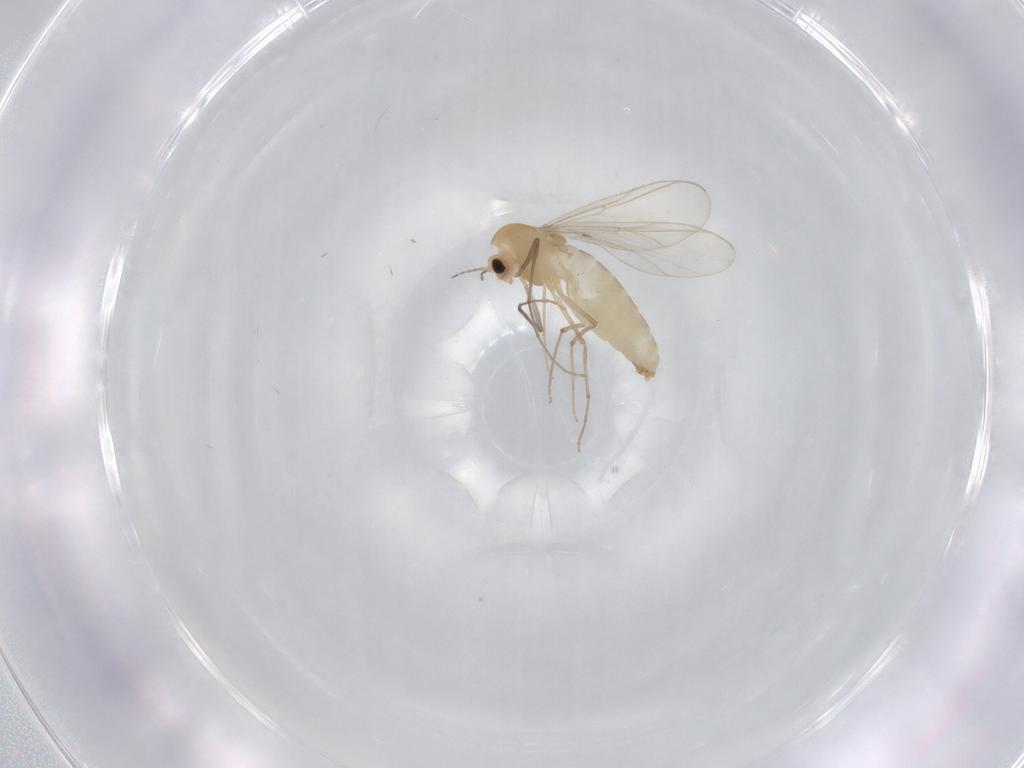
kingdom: Animalia
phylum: Arthropoda
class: Insecta
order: Diptera
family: Chironomidae
